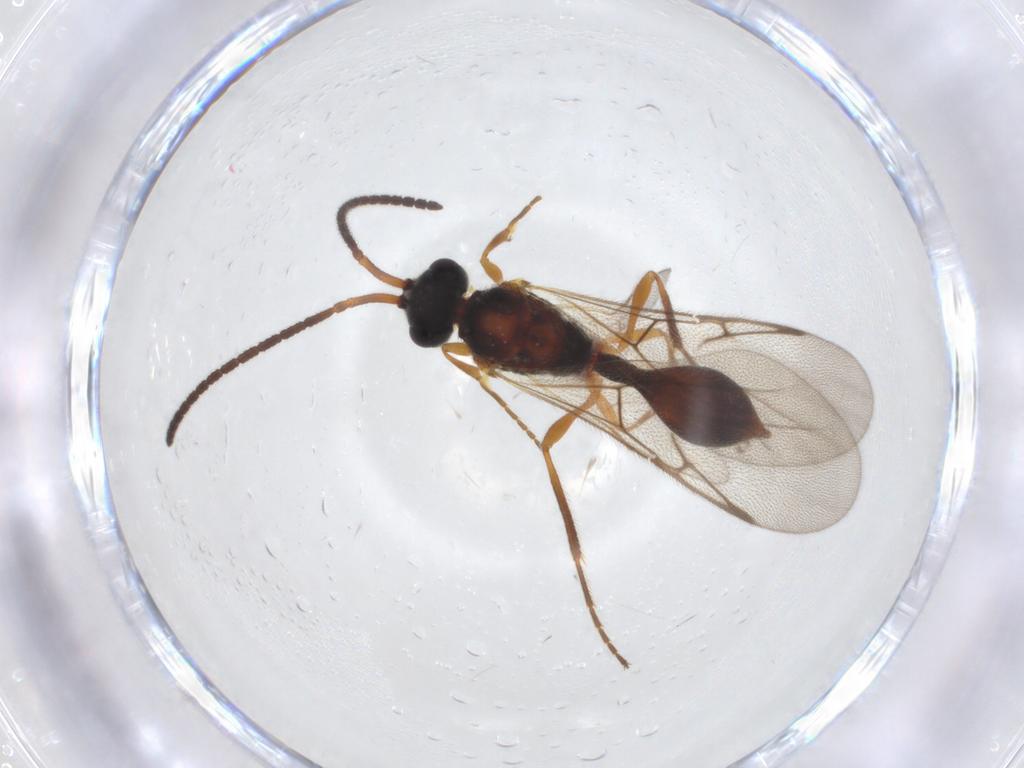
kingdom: Animalia
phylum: Arthropoda
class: Insecta
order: Hymenoptera
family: Diapriidae
